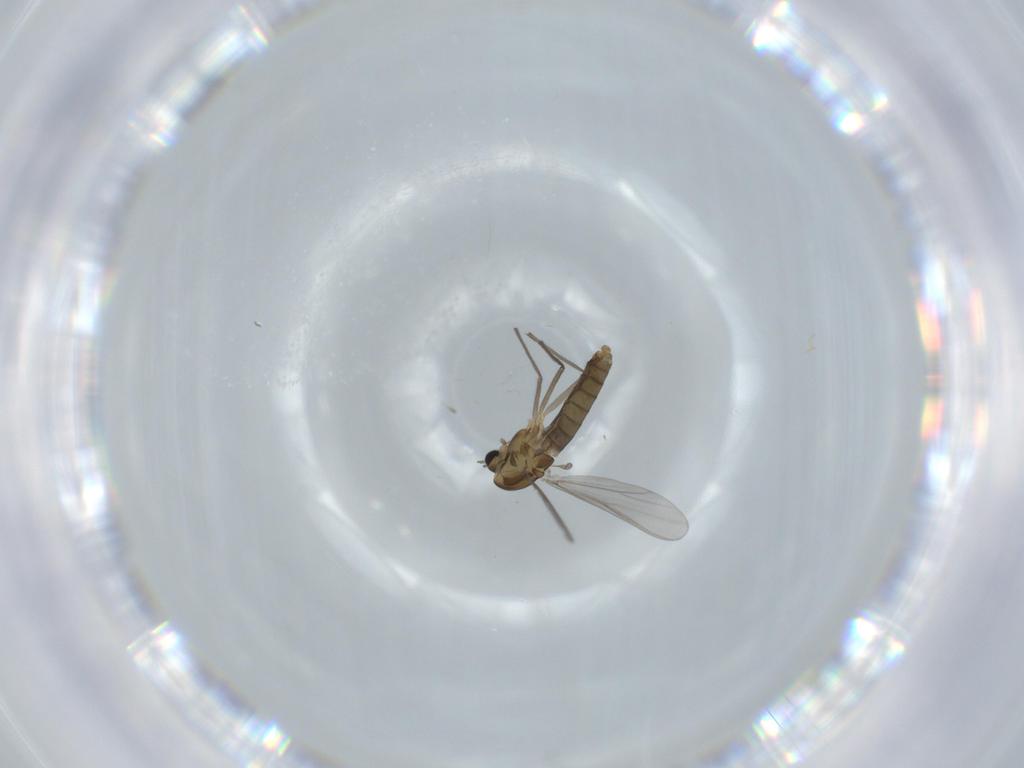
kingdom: Animalia
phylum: Arthropoda
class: Insecta
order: Diptera
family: Chironomidae
